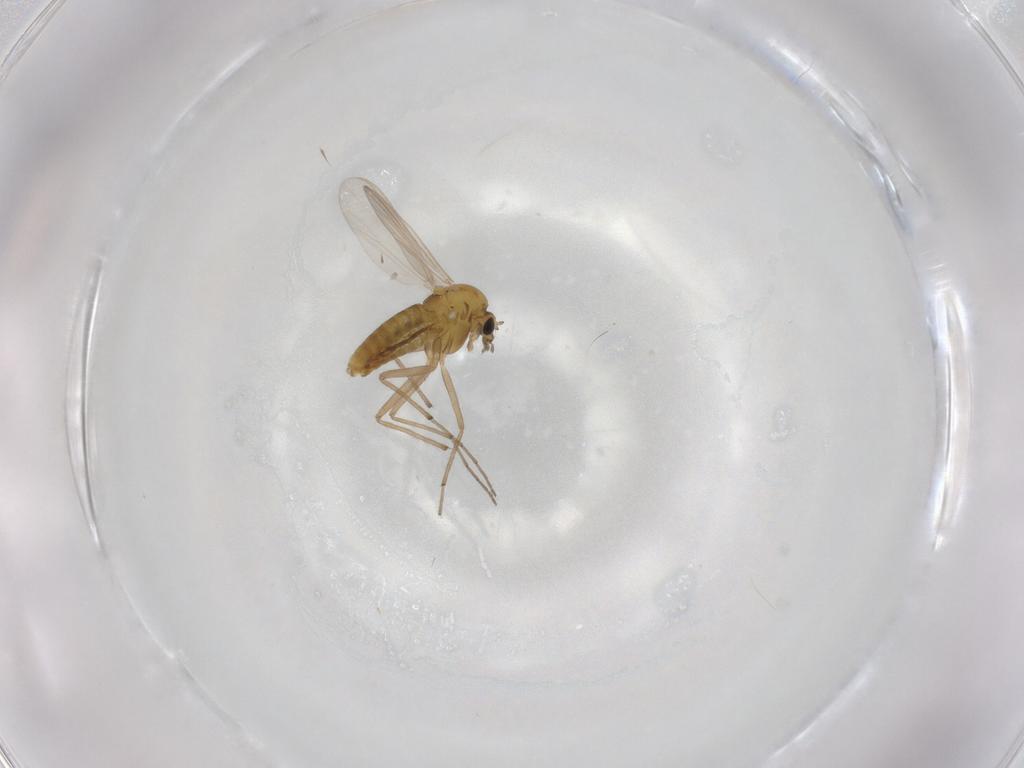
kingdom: Animalia
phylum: Arthropoda
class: Insecta
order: Diptera
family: Chironomidae
